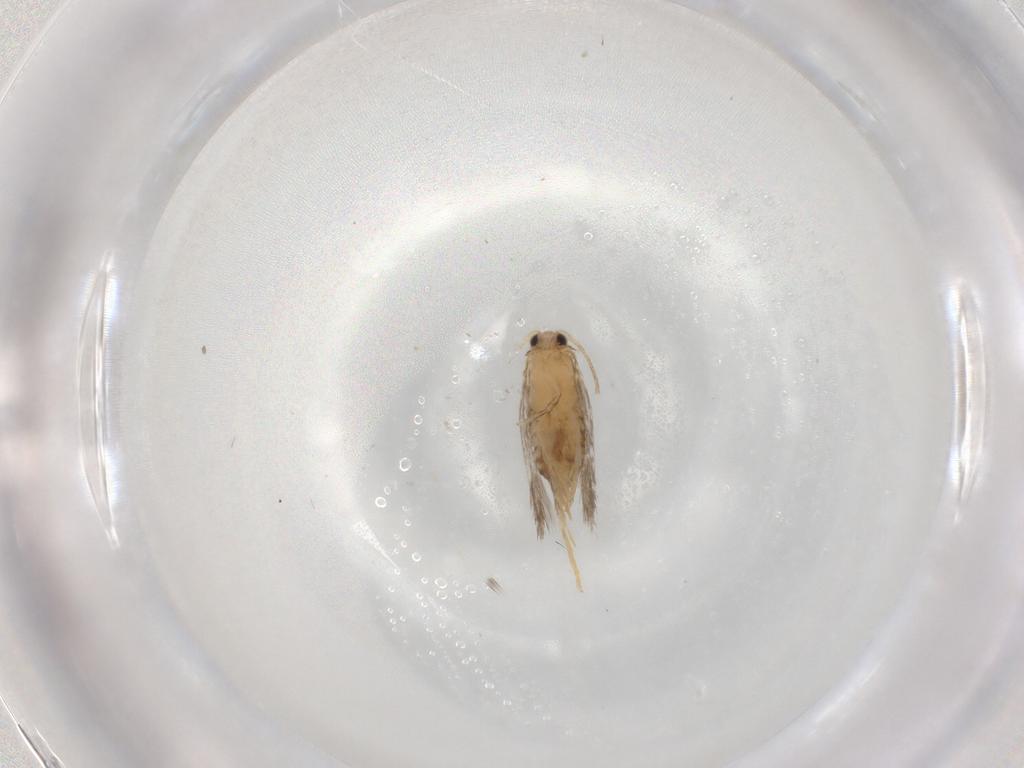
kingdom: Animalia
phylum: Arthropoda
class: Insecta
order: Lepidoptera
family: Nepticulidae
